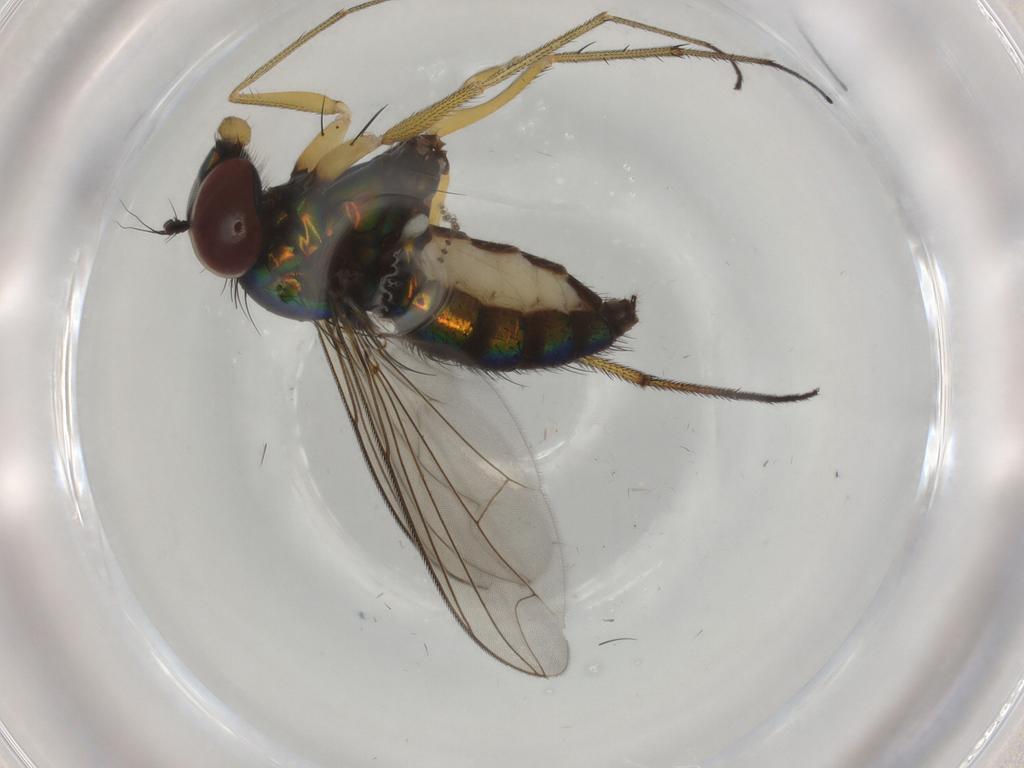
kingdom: Animalia
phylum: Arthropoda
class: Insecta
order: Diptera
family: Dolichopodidae
